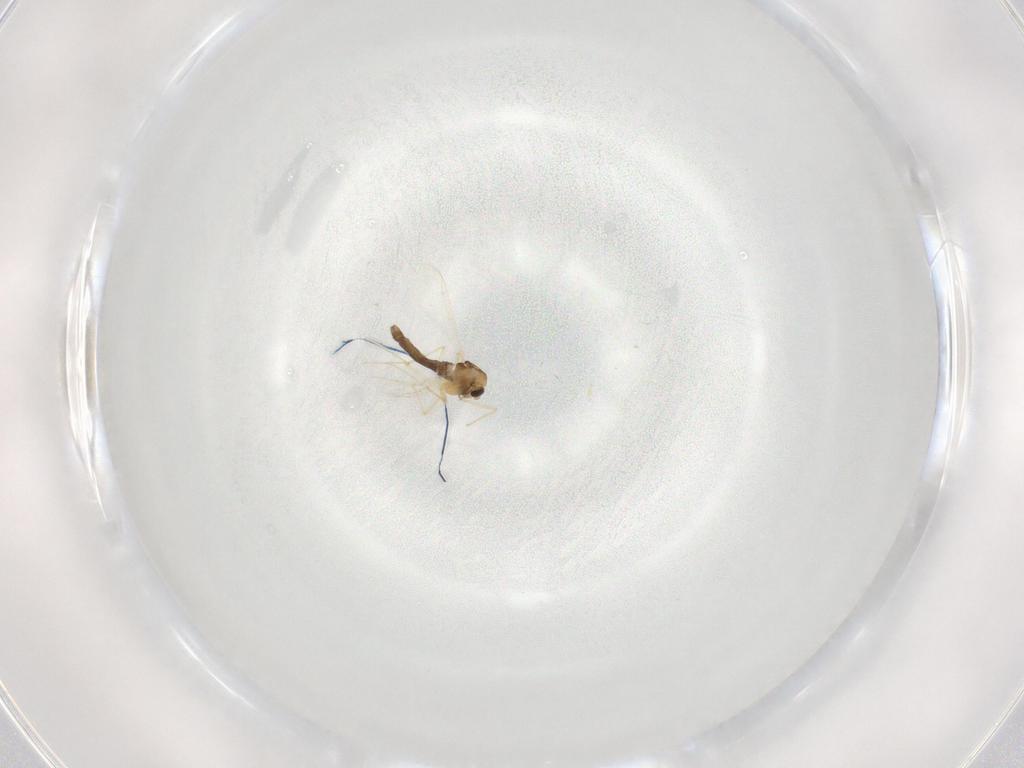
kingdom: Animalia
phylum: Arthropoda
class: Insecta
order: Diptera
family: Chironomidae
